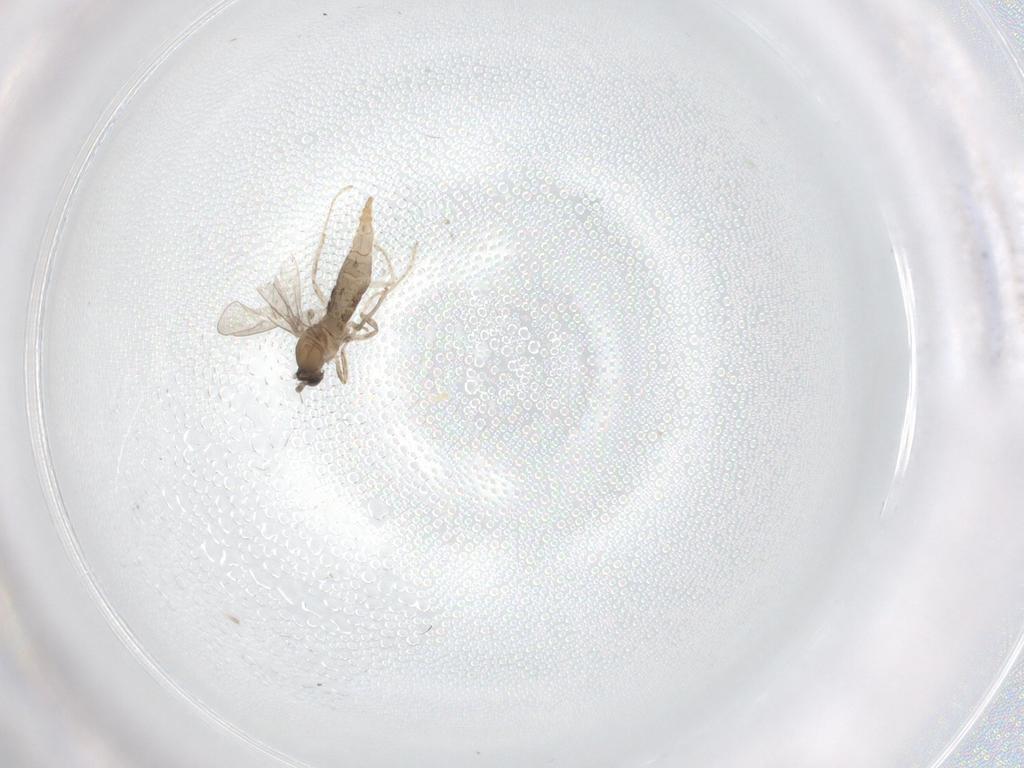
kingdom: Animalia
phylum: Arthropoda
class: Insecta
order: Diptera
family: Cecidomyiidae
